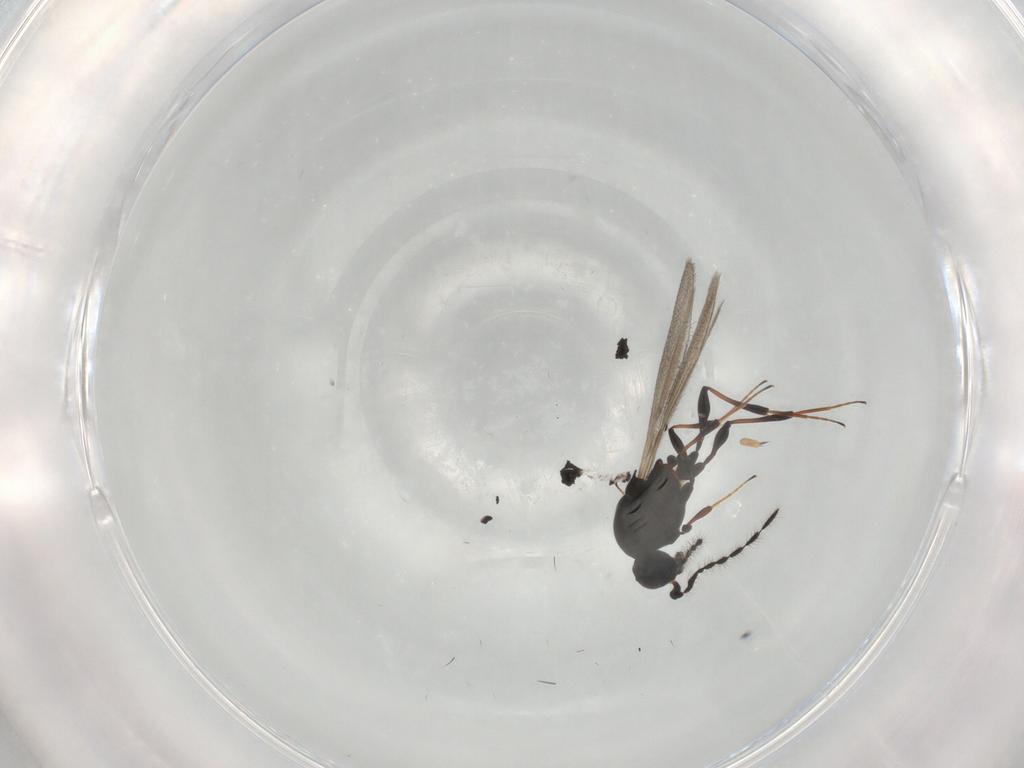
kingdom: Animalia
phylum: Arthropoda
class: Insecta
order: Hymenoptera
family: Platygastridae
